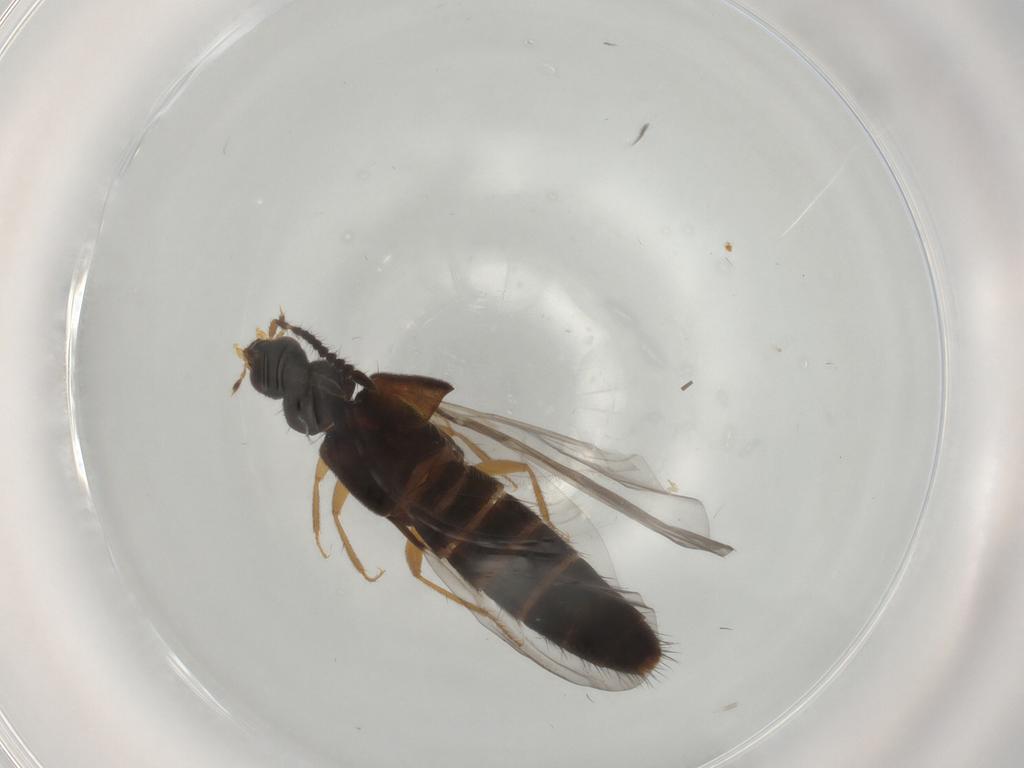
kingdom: Animalia
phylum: Arthropoda
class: Insecta
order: Coleoptera
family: Staphylinidae
